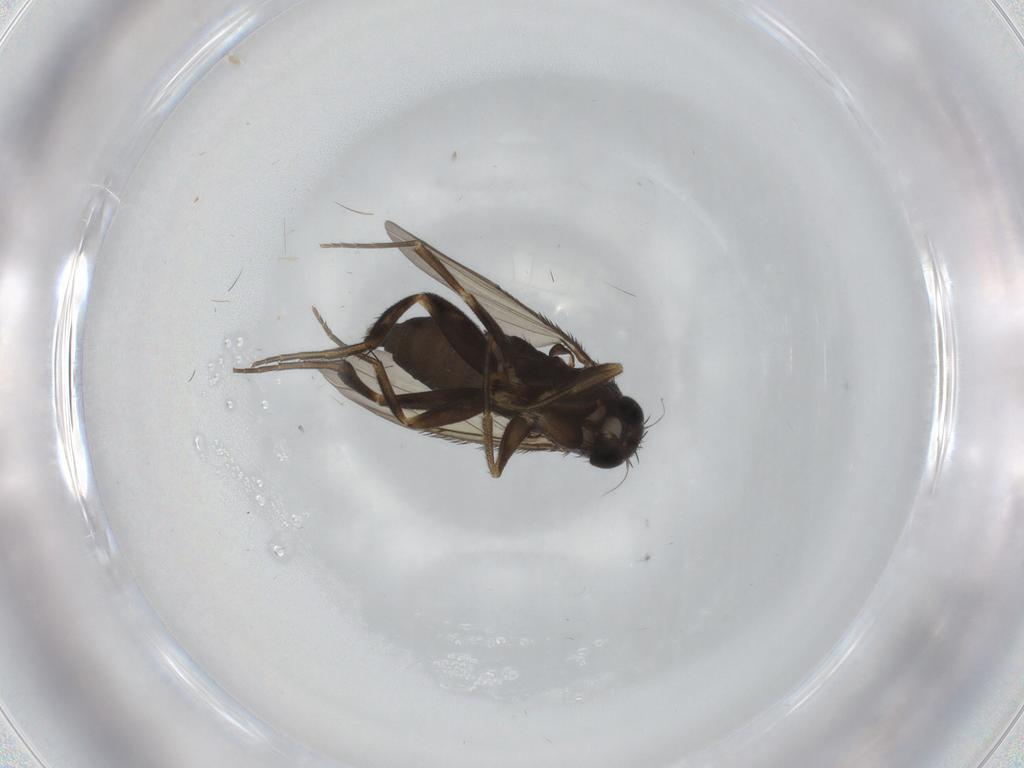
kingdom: Animalia
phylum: Arthropoda
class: Insecta
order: Diptera
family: Phoridae
